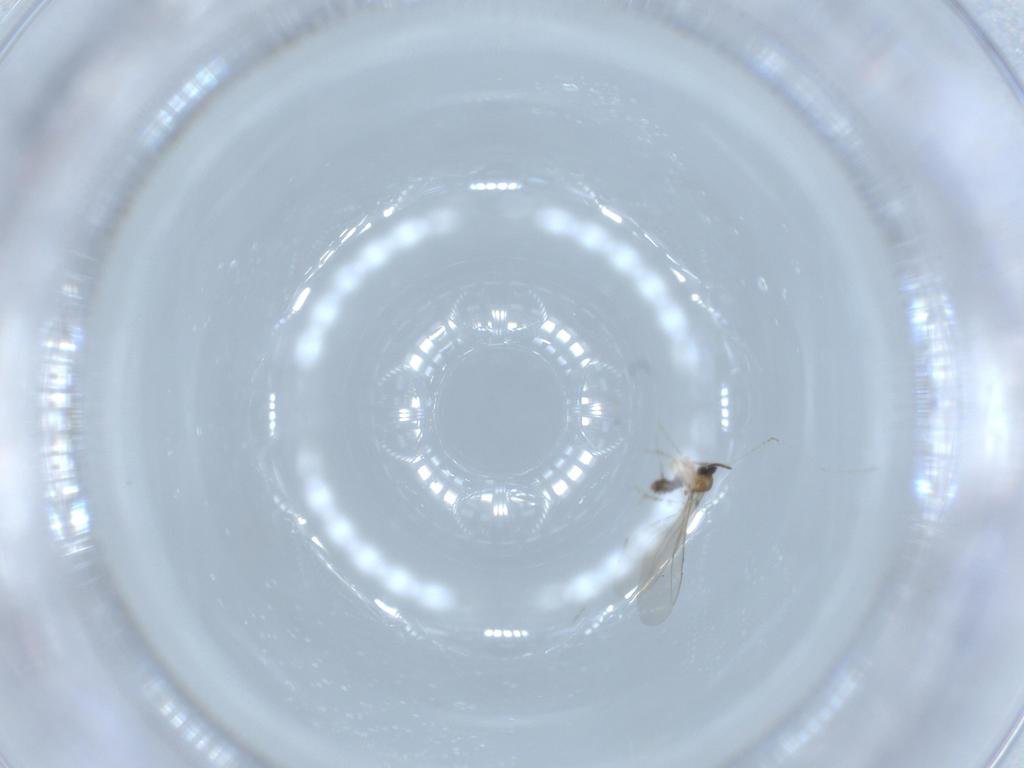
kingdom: Animalia
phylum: Arthropoda
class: Insecta
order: Diptera
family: Cecidomyiidae
